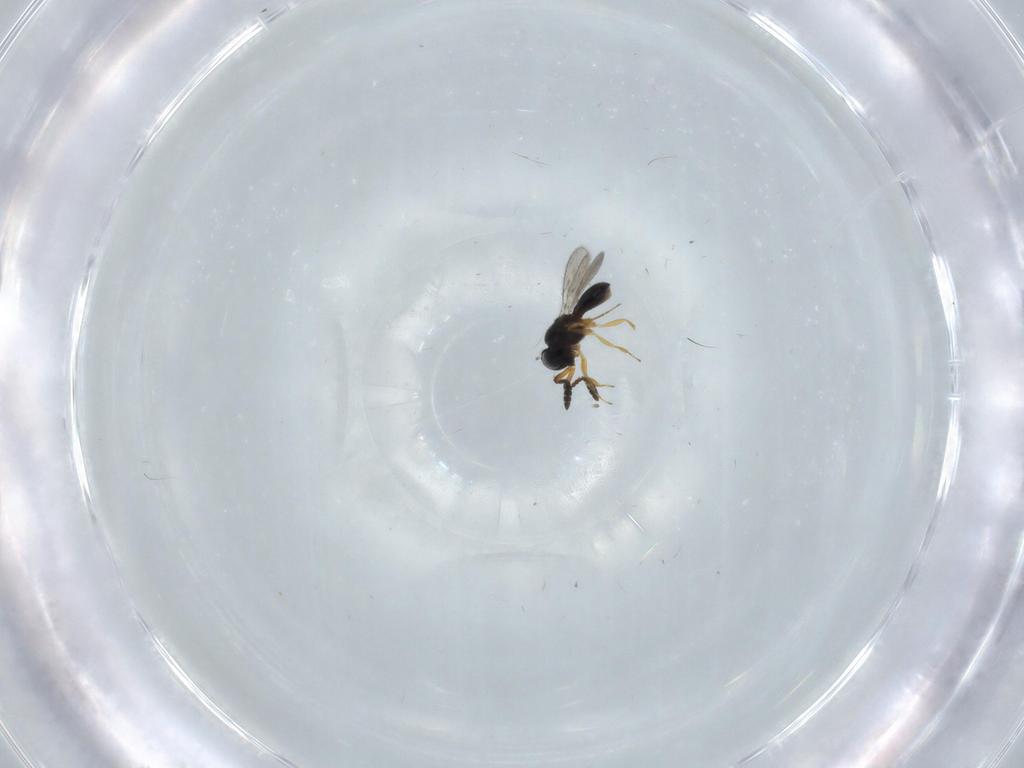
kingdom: Animalia
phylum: Arthropoda
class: Insecta
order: Hymenoptera
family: Scelionidae
